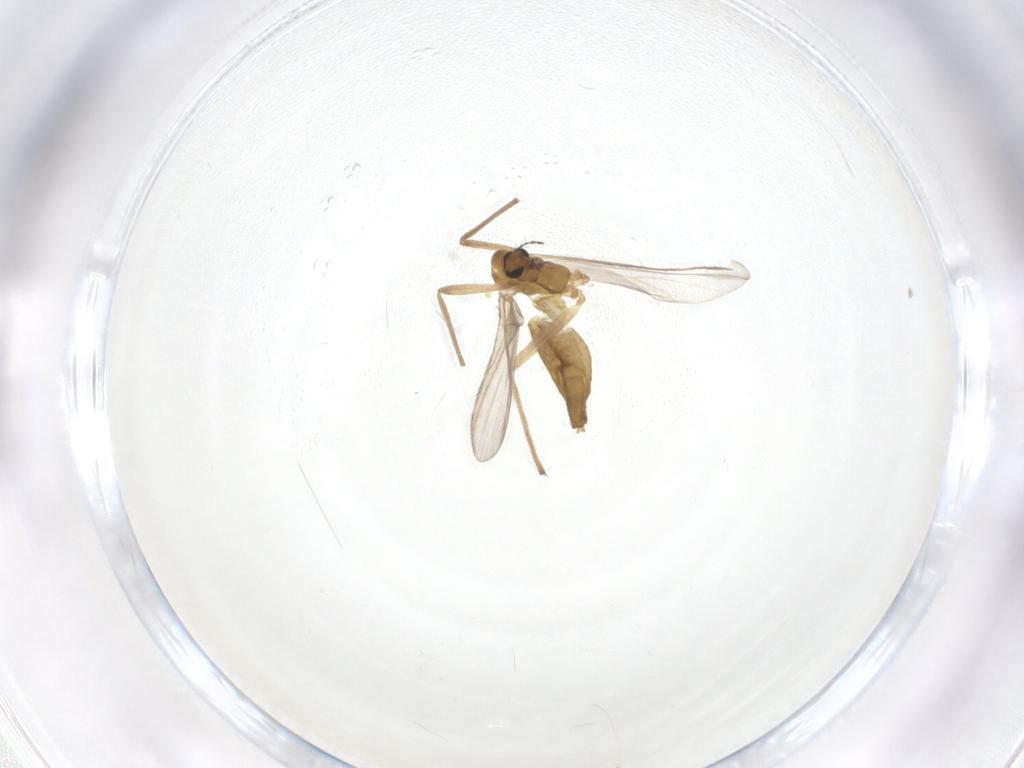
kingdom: Animalia
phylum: Arthropoda
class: Insecta
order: Diptera
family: Chironomidae
